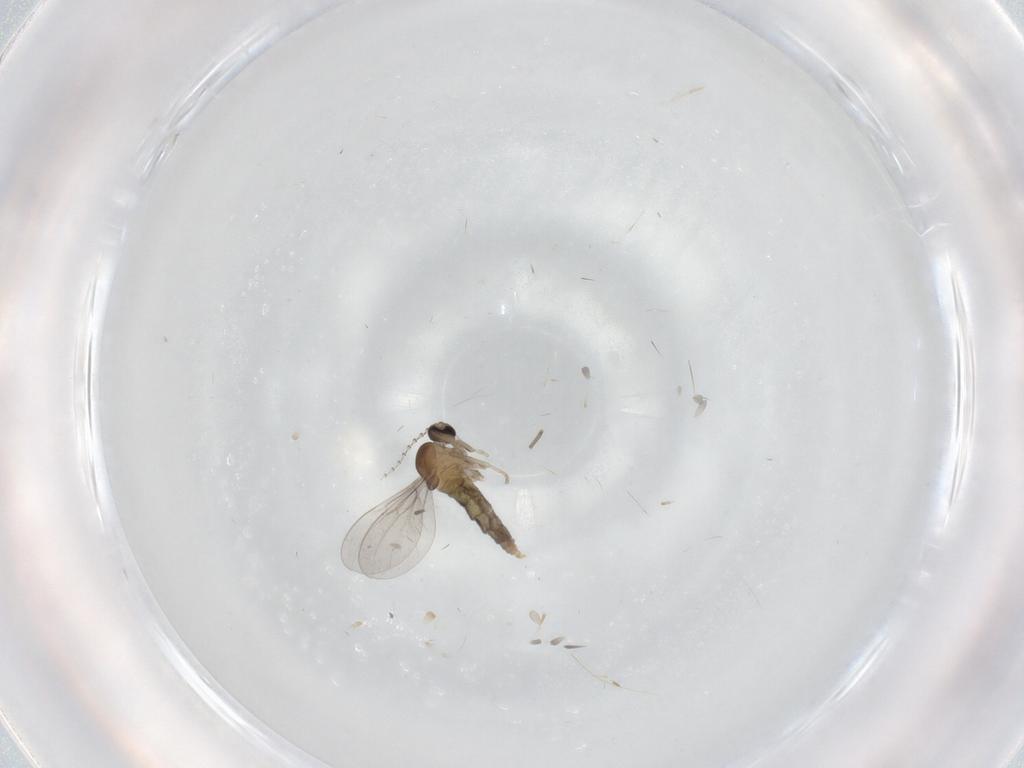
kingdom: Animalia
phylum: Arthropoda
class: Insecta
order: Diptera
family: Cecidomyiidae
